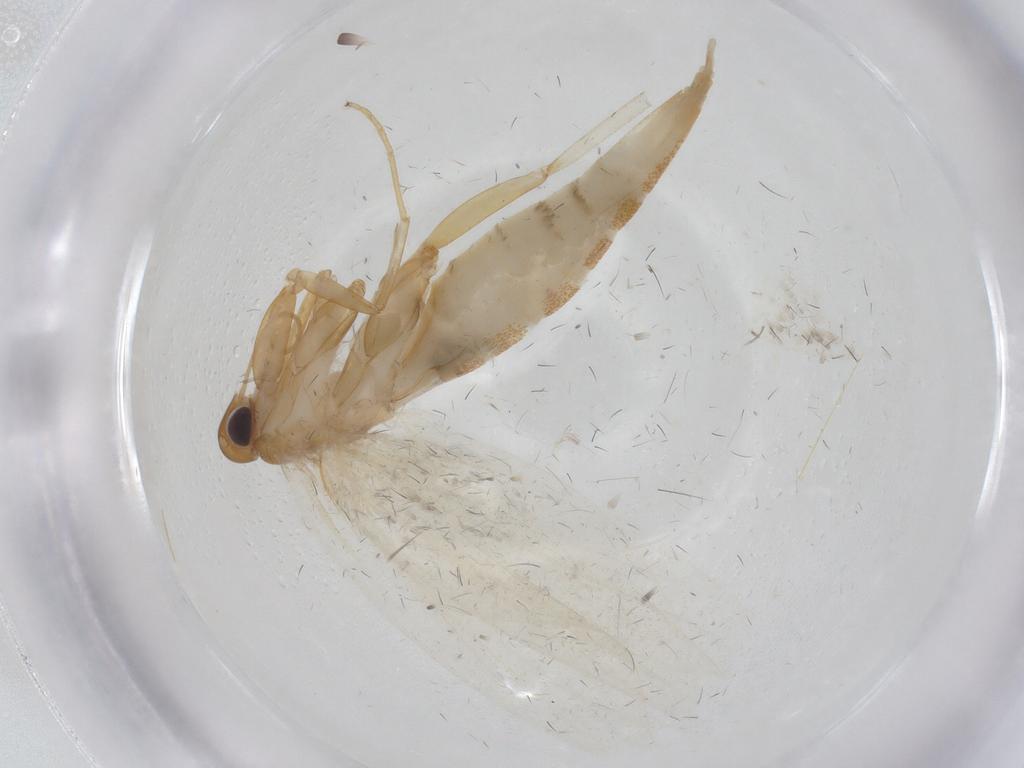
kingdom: Animalia
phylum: Arthropoda
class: Insecta
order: Lepidoptera
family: Oecophoridae
